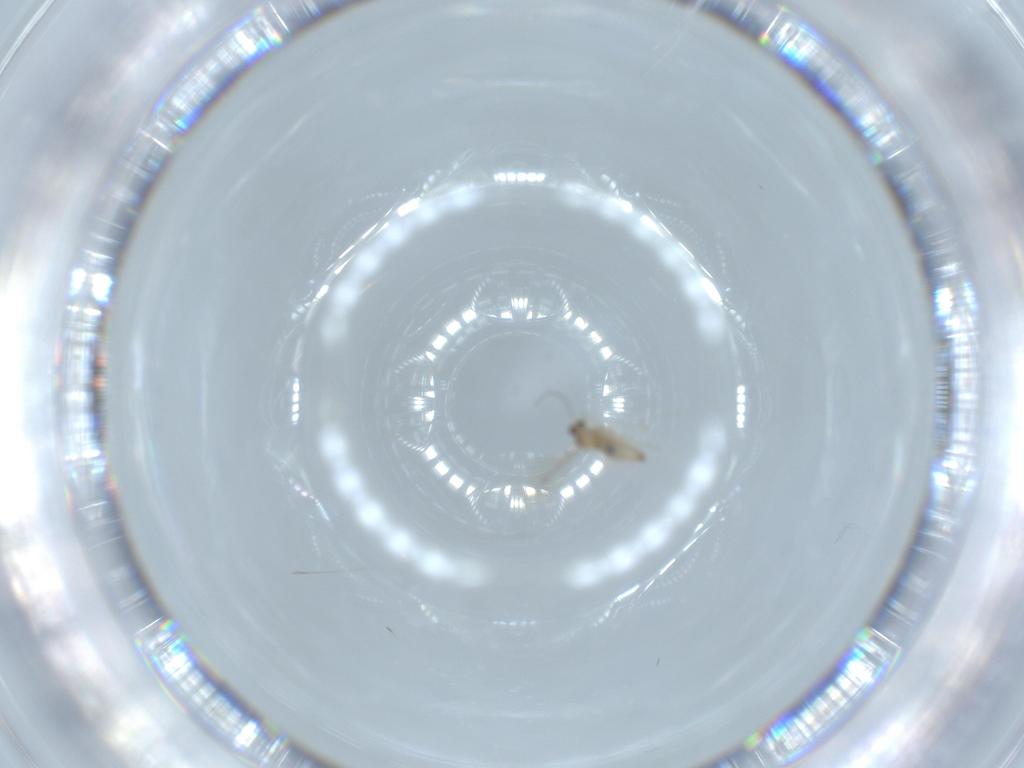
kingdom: Animalia
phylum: Arthropoda
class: Insecta
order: Diptera
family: Cecidomyiidae
